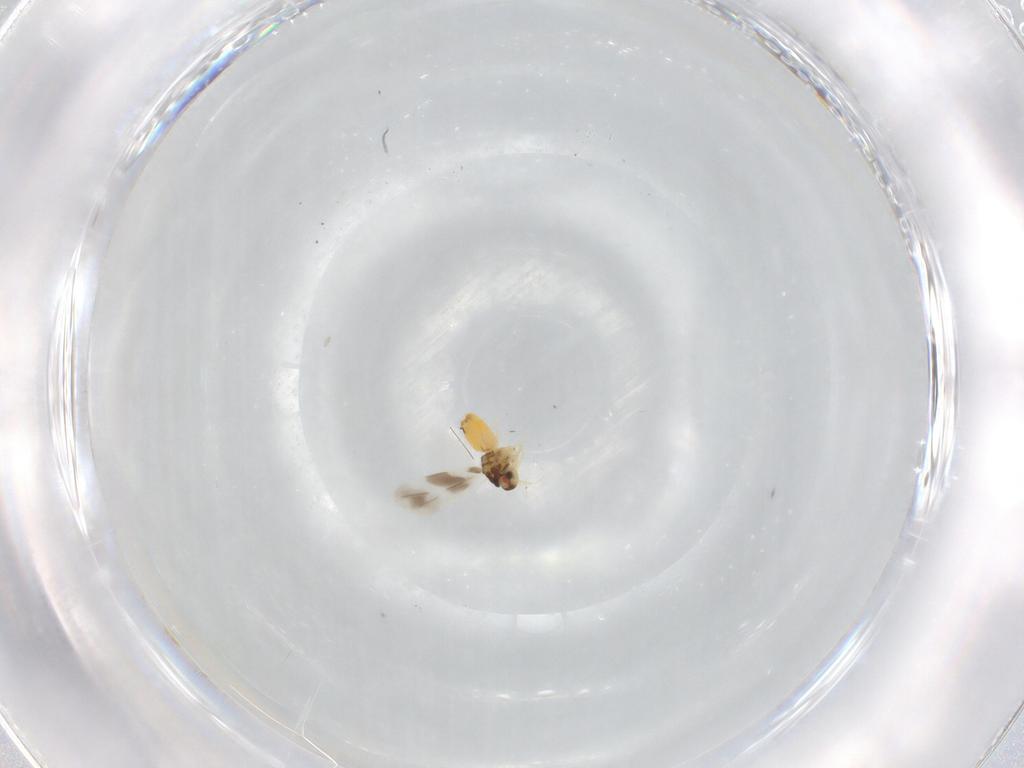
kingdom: Animalia
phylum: Arthropoda
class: Insecta
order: Hemiptera
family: Aleyrodidae
